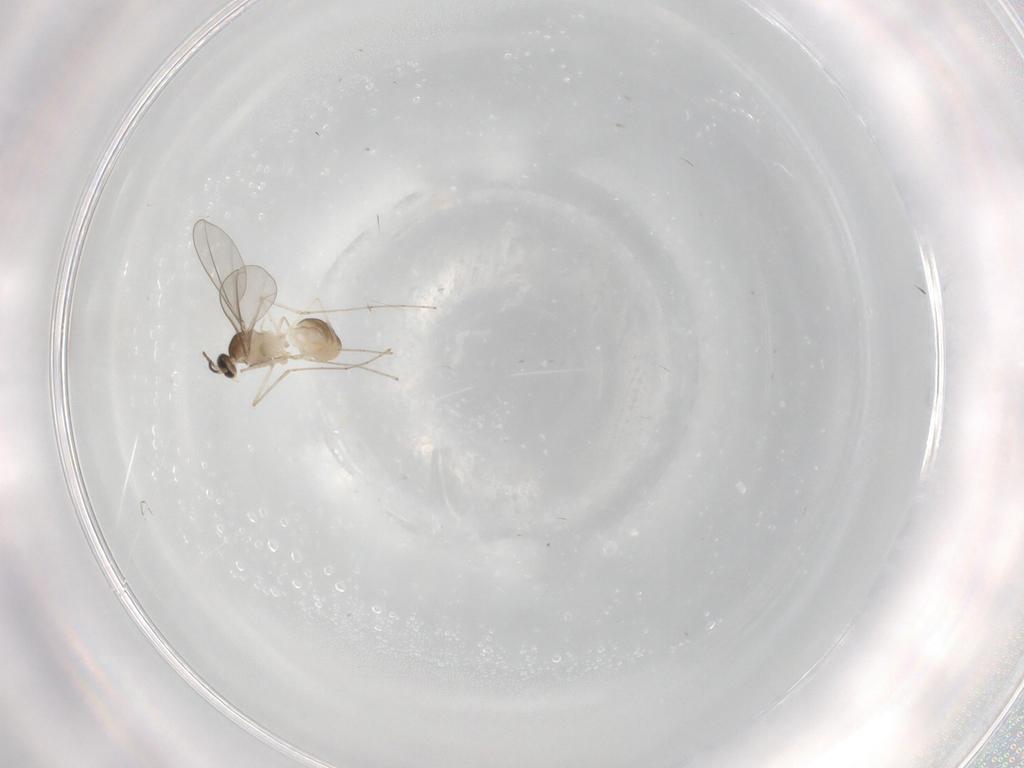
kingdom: Animalia
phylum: Arthropoda
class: Insecta
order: Diptera
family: Cecidomyiidae
